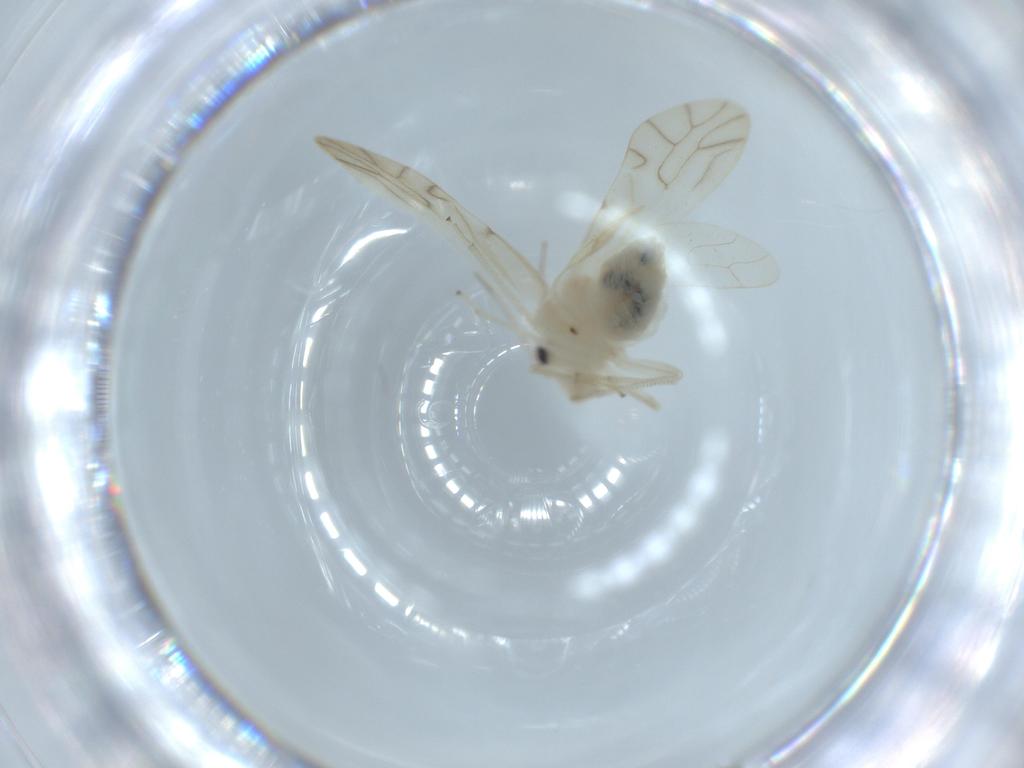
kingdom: Animalia
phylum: Arthropoda
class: Insecta
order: Psocodea
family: Caeciliusidae
